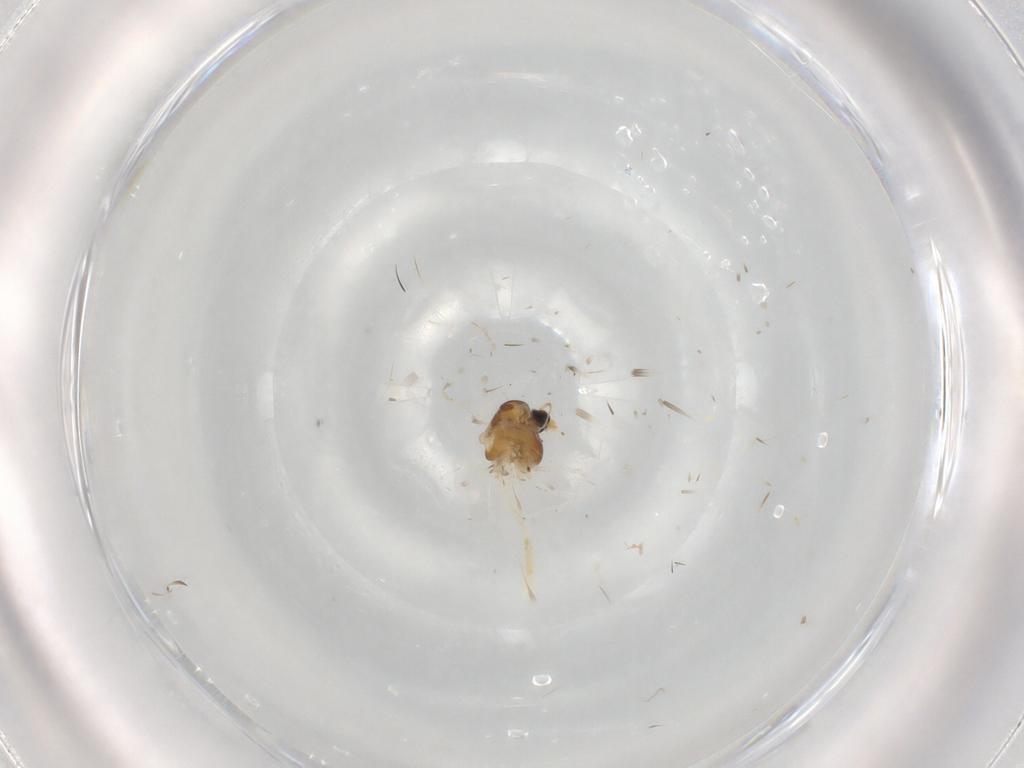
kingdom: Animalia
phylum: Arthropoda
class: Insecta
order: Diptera
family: Chironomidae
